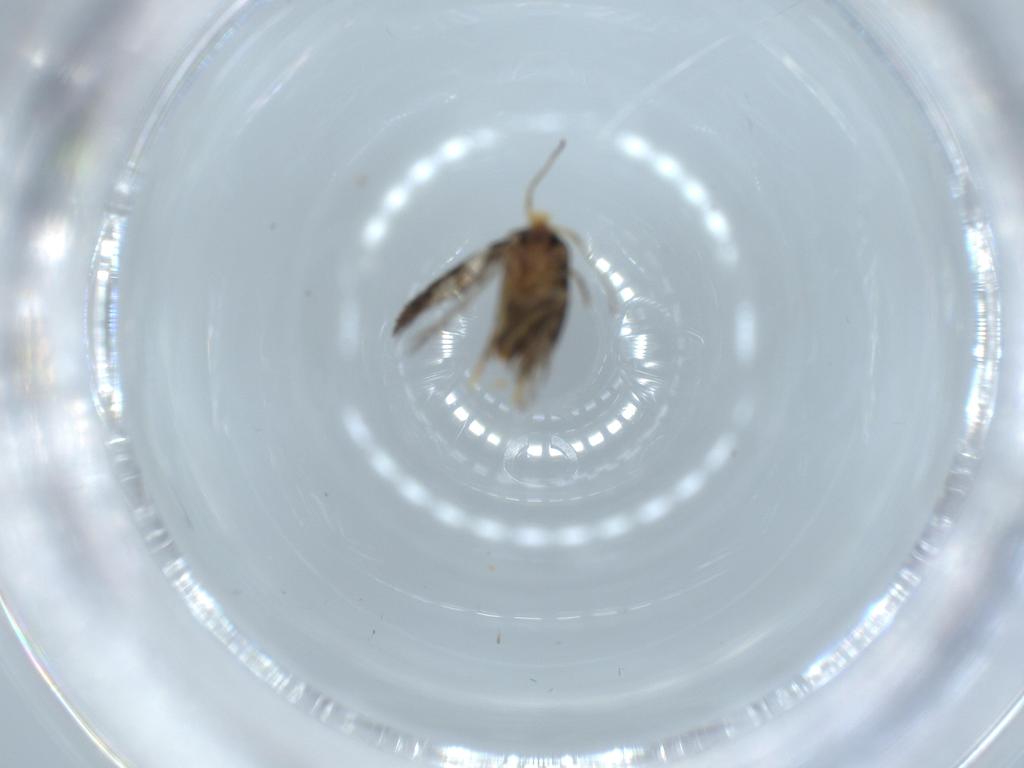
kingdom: Animalia
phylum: Arthropoda
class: Insecta
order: Lepidoptera
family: Nepticulidae
